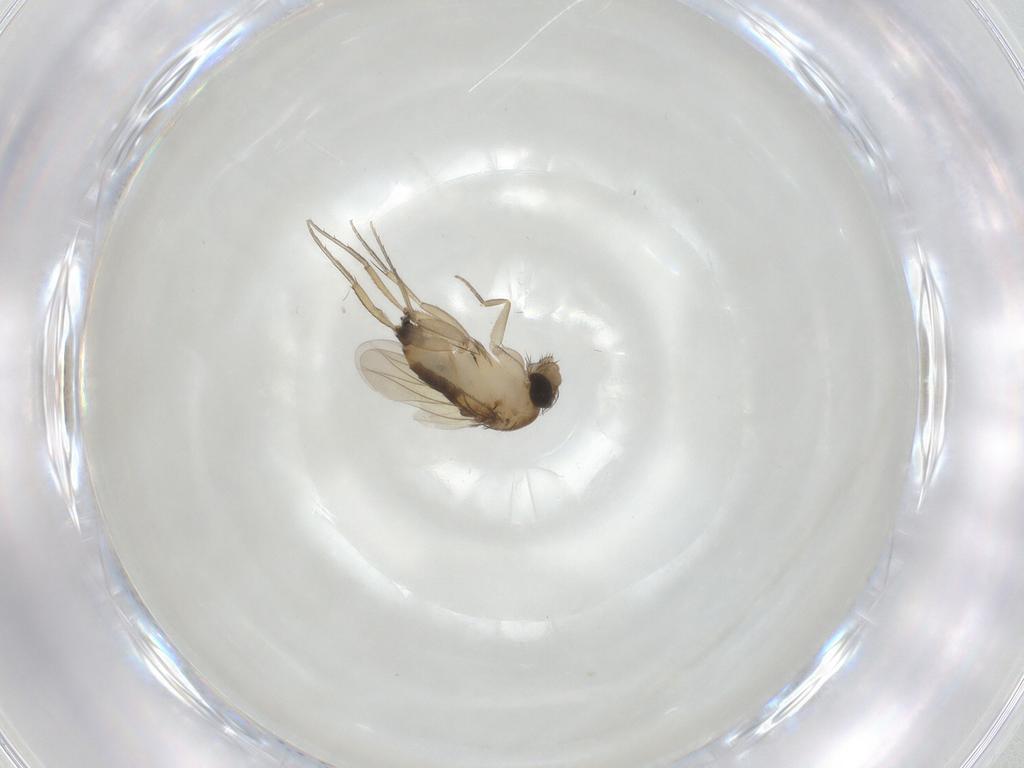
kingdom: Animalia
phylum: Arthropoda
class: Insecta
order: Diptera
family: Phoridae
